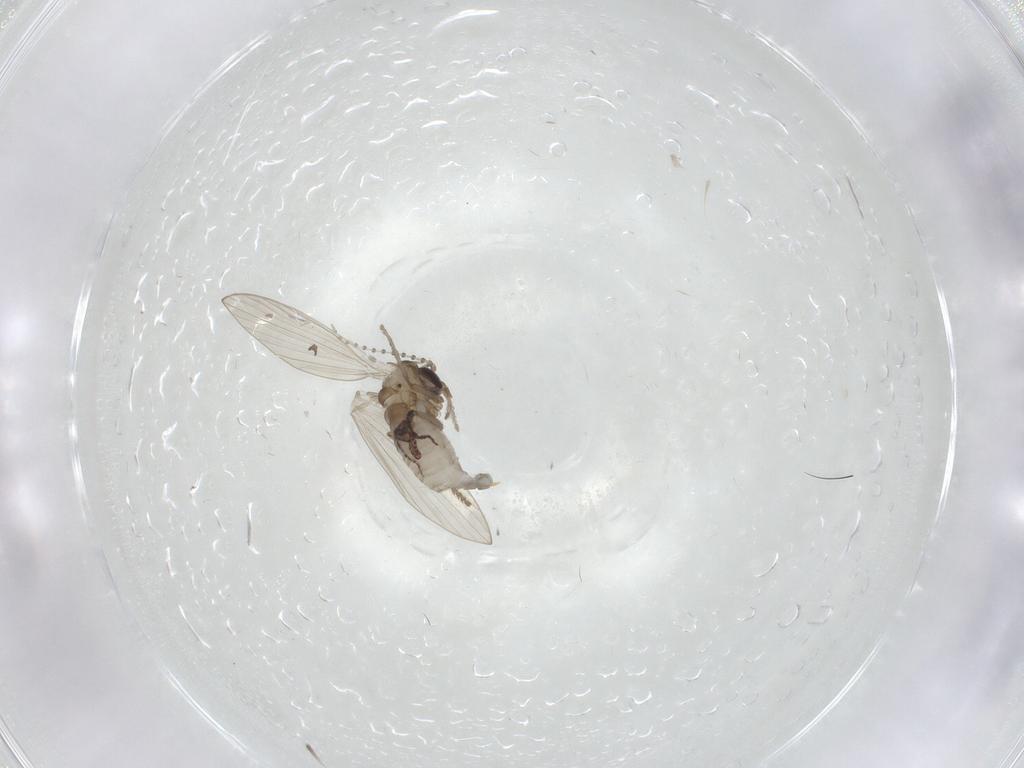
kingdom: Animalia
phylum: Arthropoda
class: Insecta
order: Diptera
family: Psychodidae
